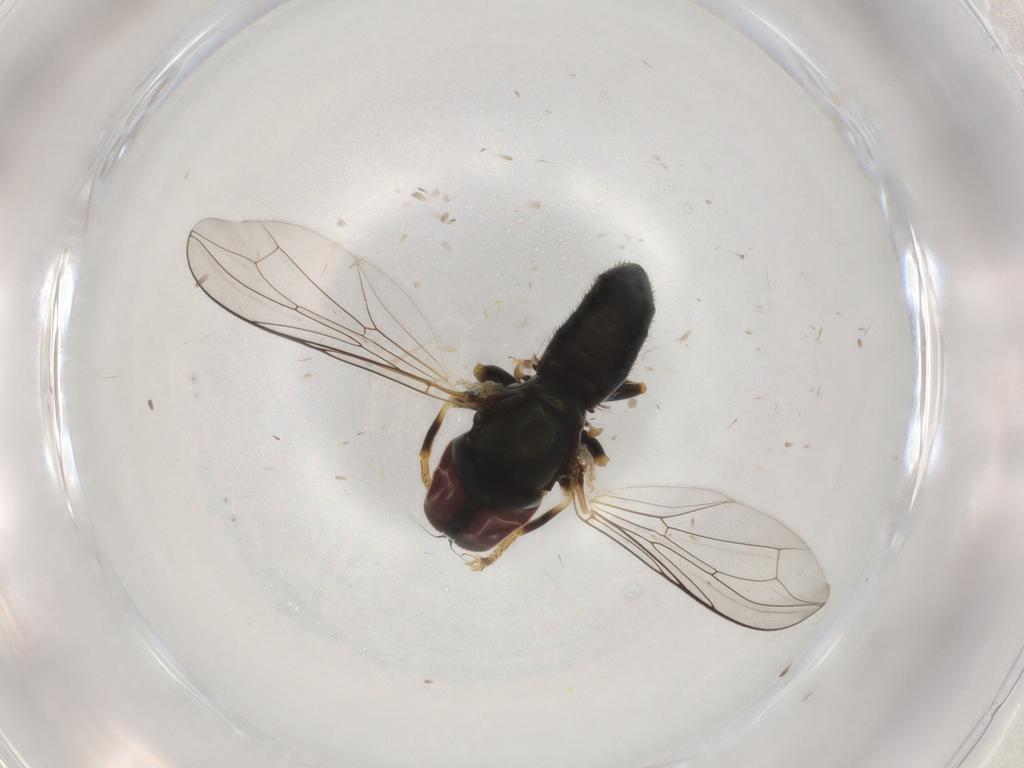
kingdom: Animalia
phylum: Arthropoda
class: Insecta
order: Diptera
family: Pipunculidae
